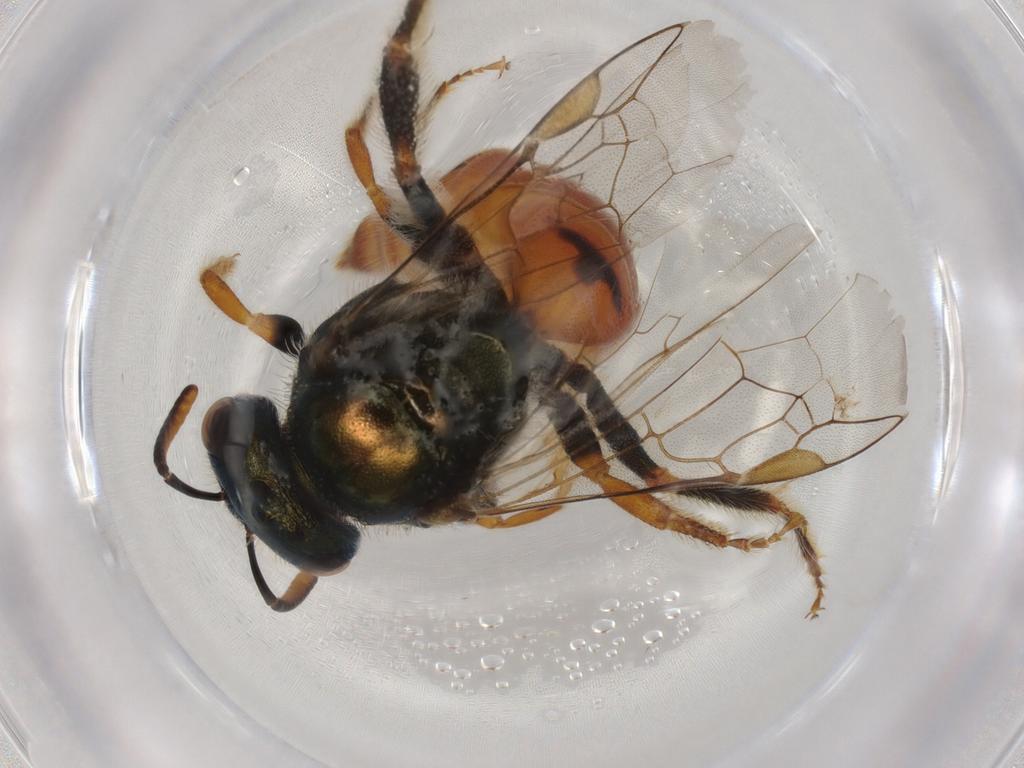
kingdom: Animalia
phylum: Arthropoda
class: Insecta
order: Hymenoptera
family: Halictidae
